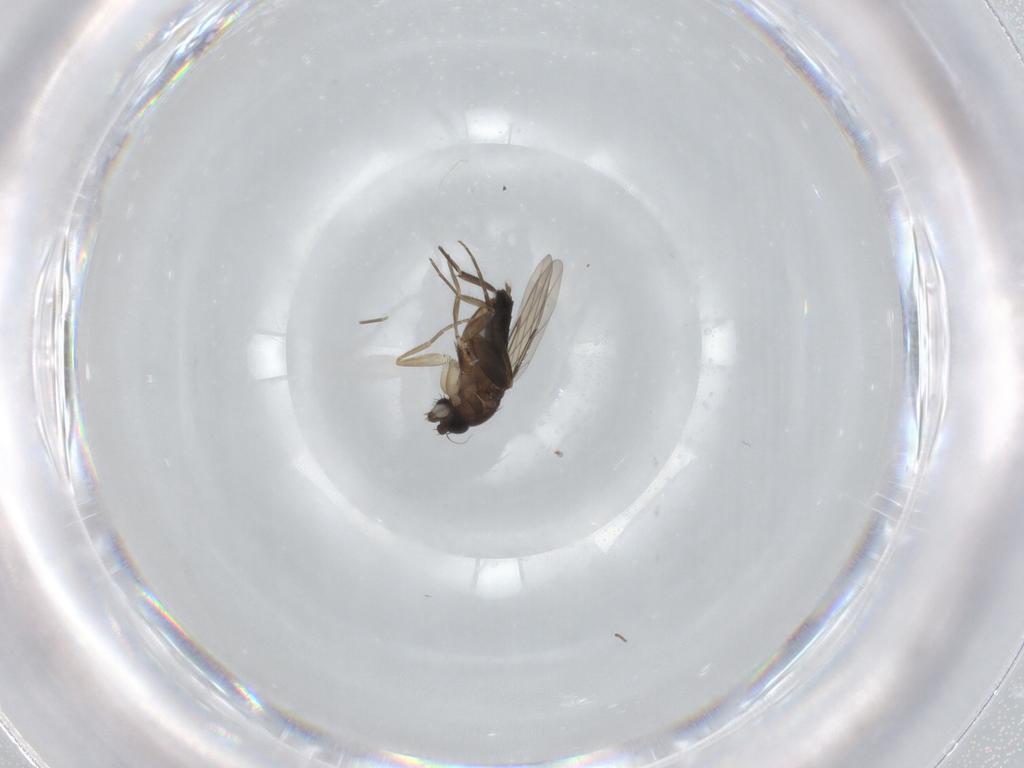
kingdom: Animalia
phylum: Arthropoda
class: Insecta
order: Diptera
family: Phoridae
